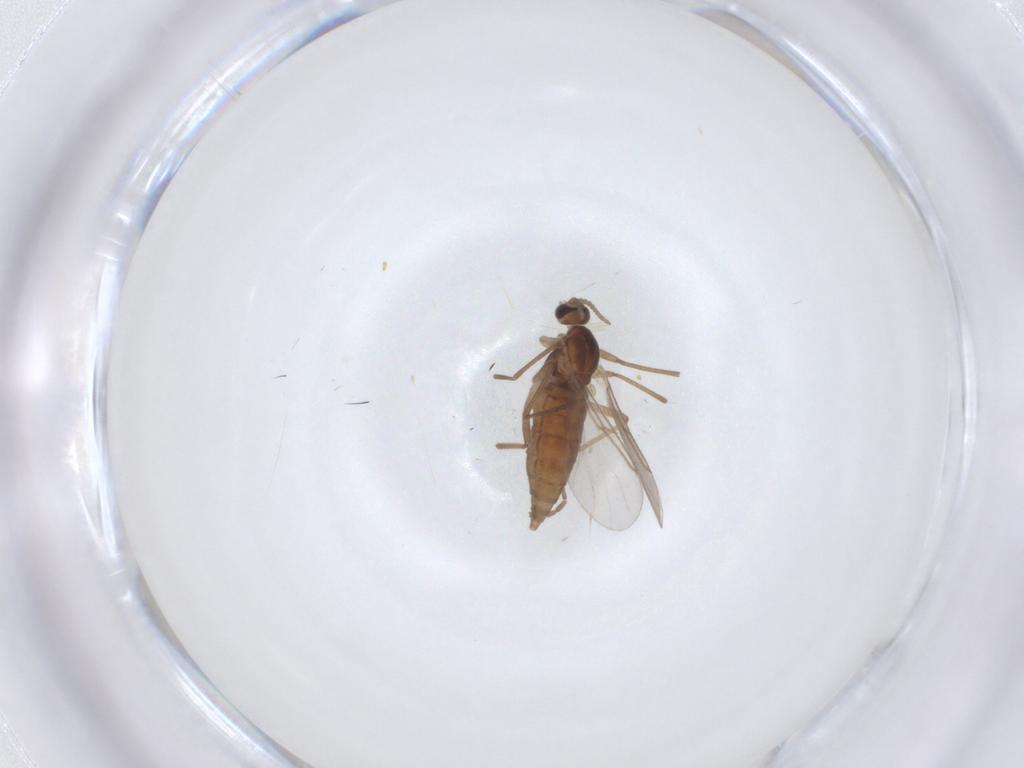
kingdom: Animalia
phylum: Arthropoda
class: Insecta
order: Diptera
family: Cecidomyiidae
